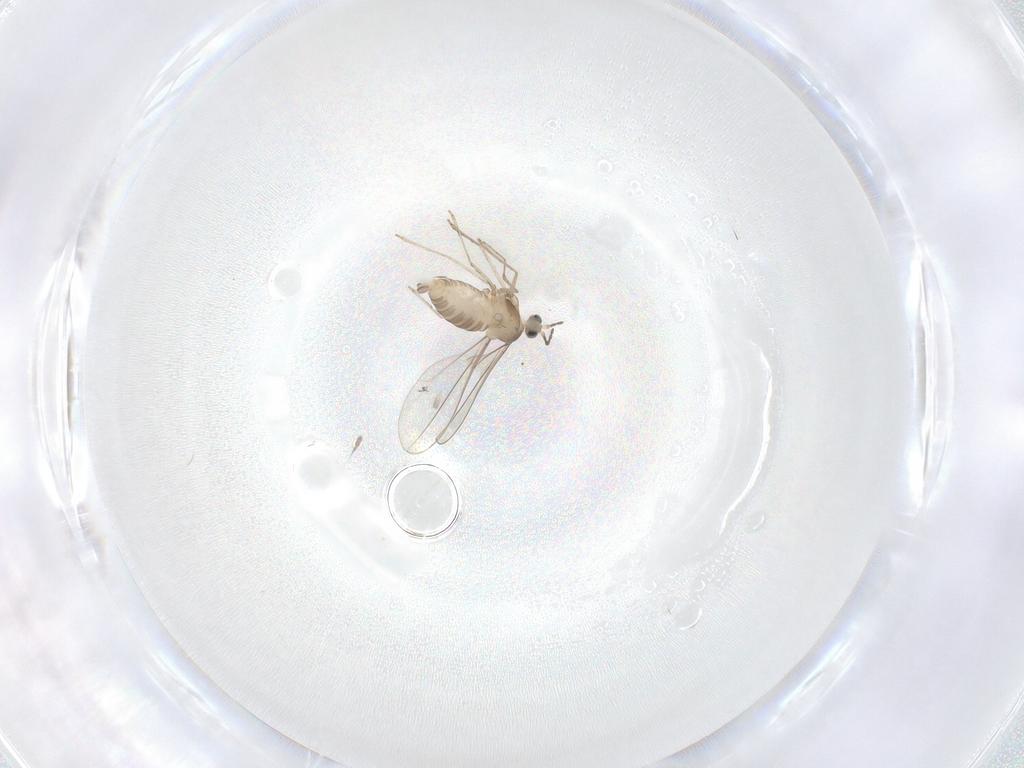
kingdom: Animalia
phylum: Arthropoda
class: Insecta
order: Diptera
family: Cecidomyiidae
